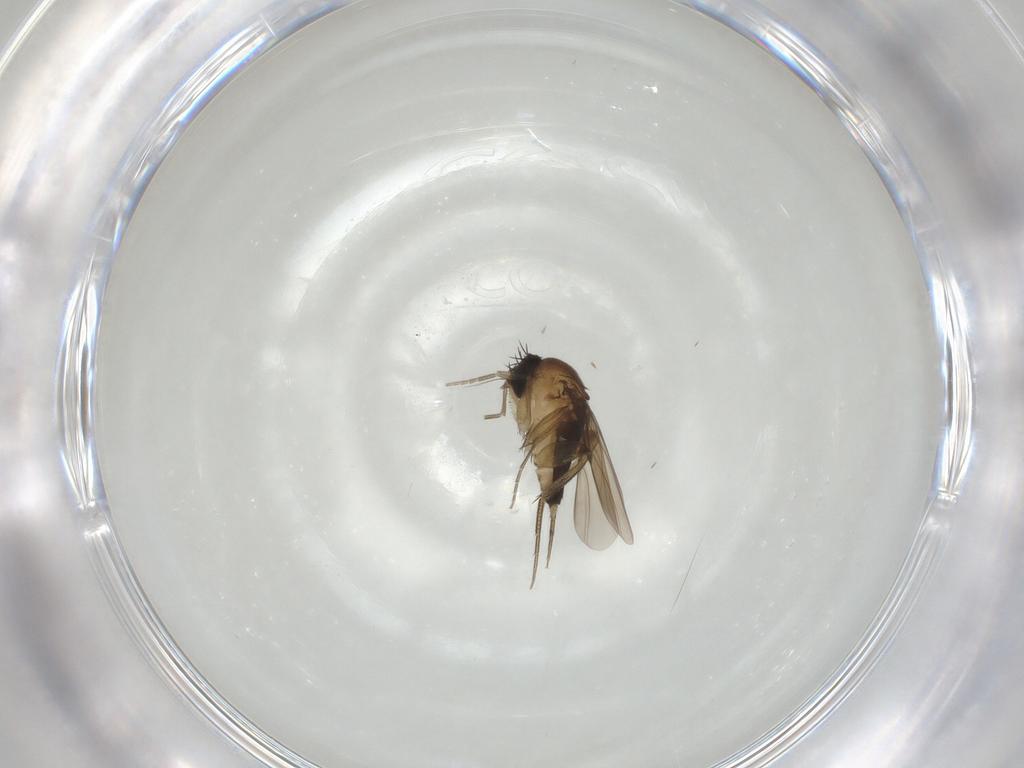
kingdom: Animalia
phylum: Arthropoda
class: Insecta
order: Diptera
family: Phoridae
